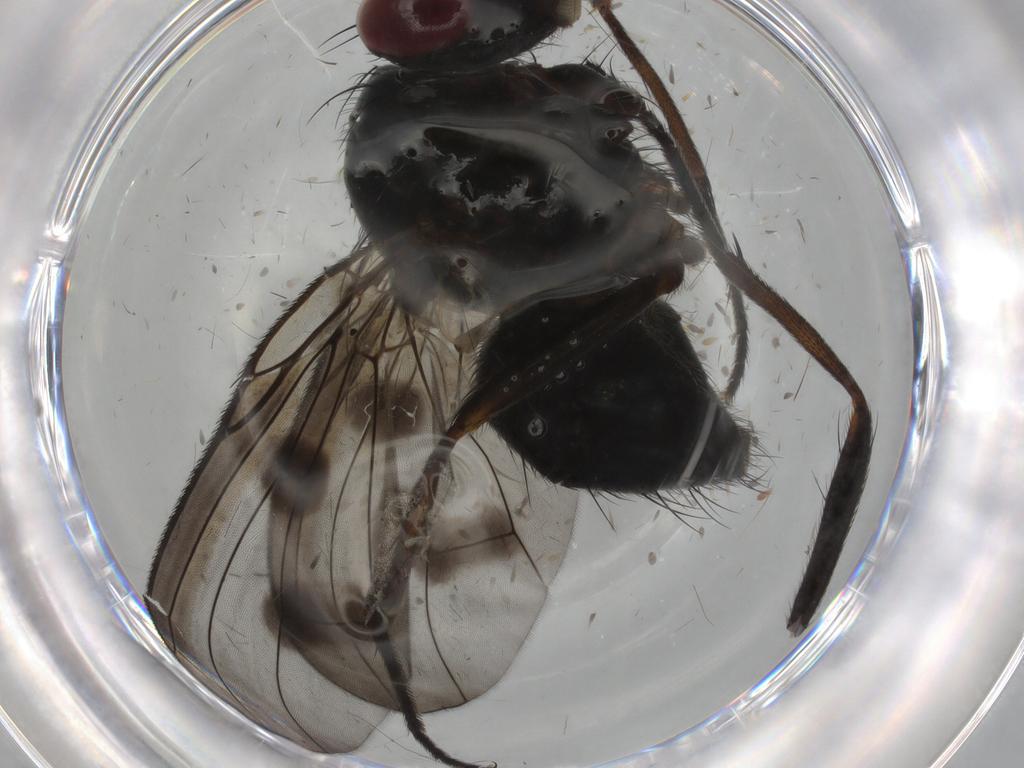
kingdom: Animalia
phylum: Arthropoda
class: Insecta
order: Diptera
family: Muscidae
